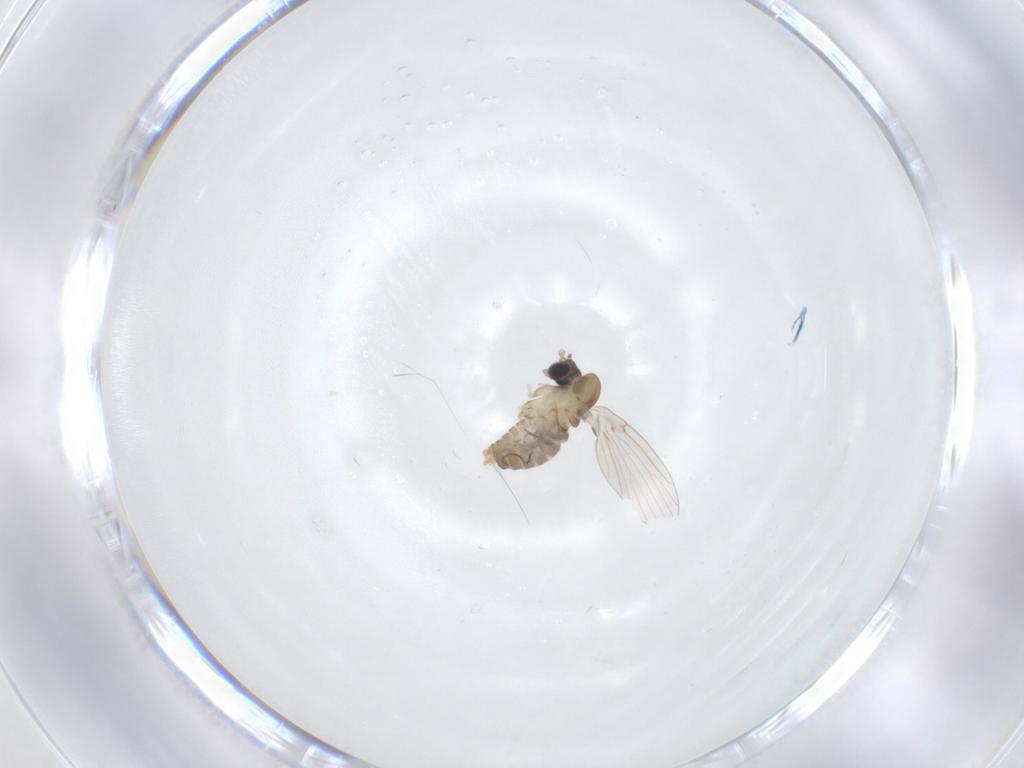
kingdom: Animalia
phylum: Arthropoda
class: Insecta
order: Diptera
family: Psychodidae
